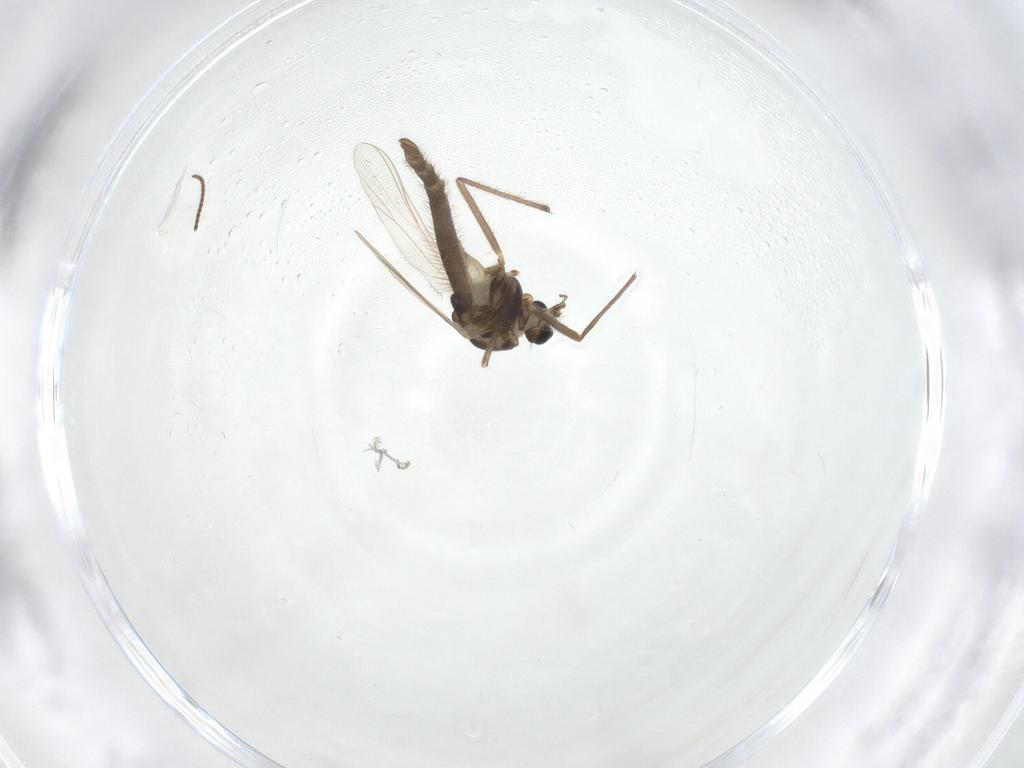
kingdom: Animalia
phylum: Arthropoda
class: Insecta
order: Diptera
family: Chironomidae
